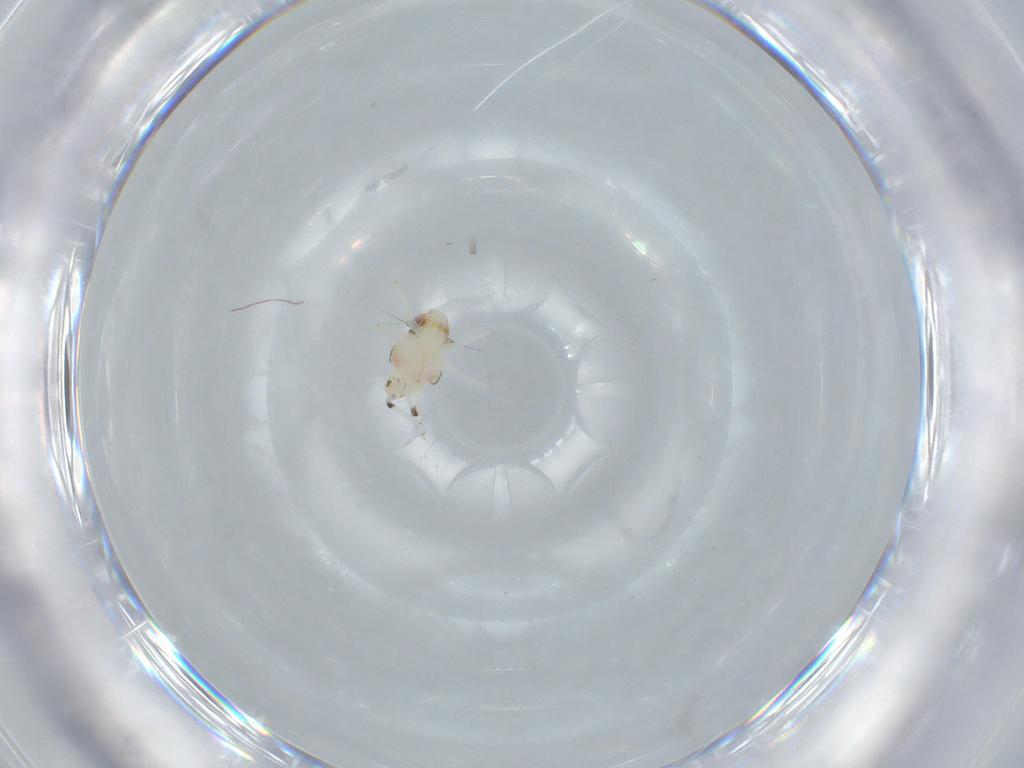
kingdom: Animalia
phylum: Arthropoda
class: Insecta
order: Hemiptera
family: Nogodinidae
